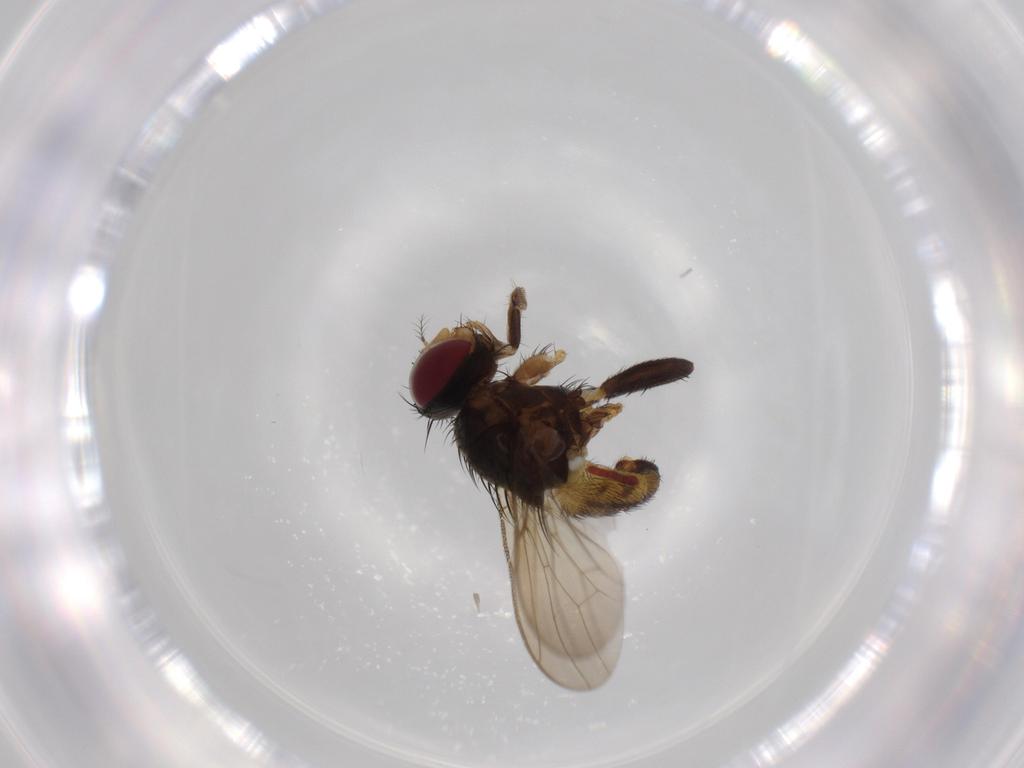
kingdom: Animalia
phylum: Arthropoda
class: Insecta
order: Diptera
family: Anthomyiidae
